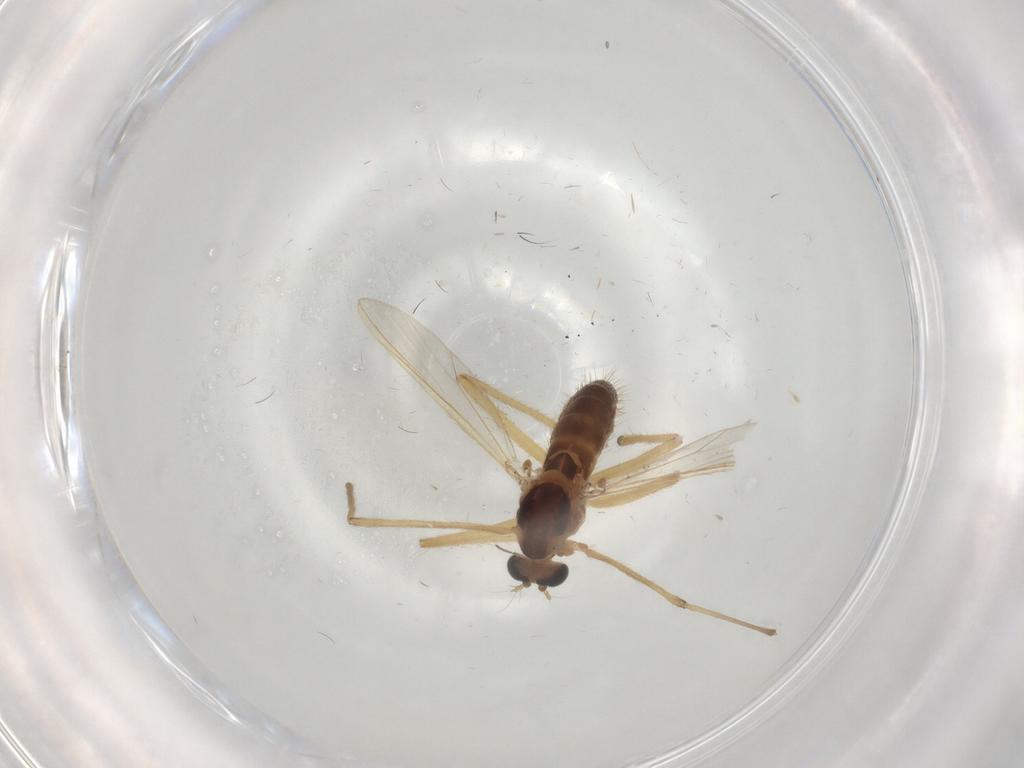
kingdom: Animalia
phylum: Arthropoda
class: Insecta
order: Diptera
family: Chironomidae
